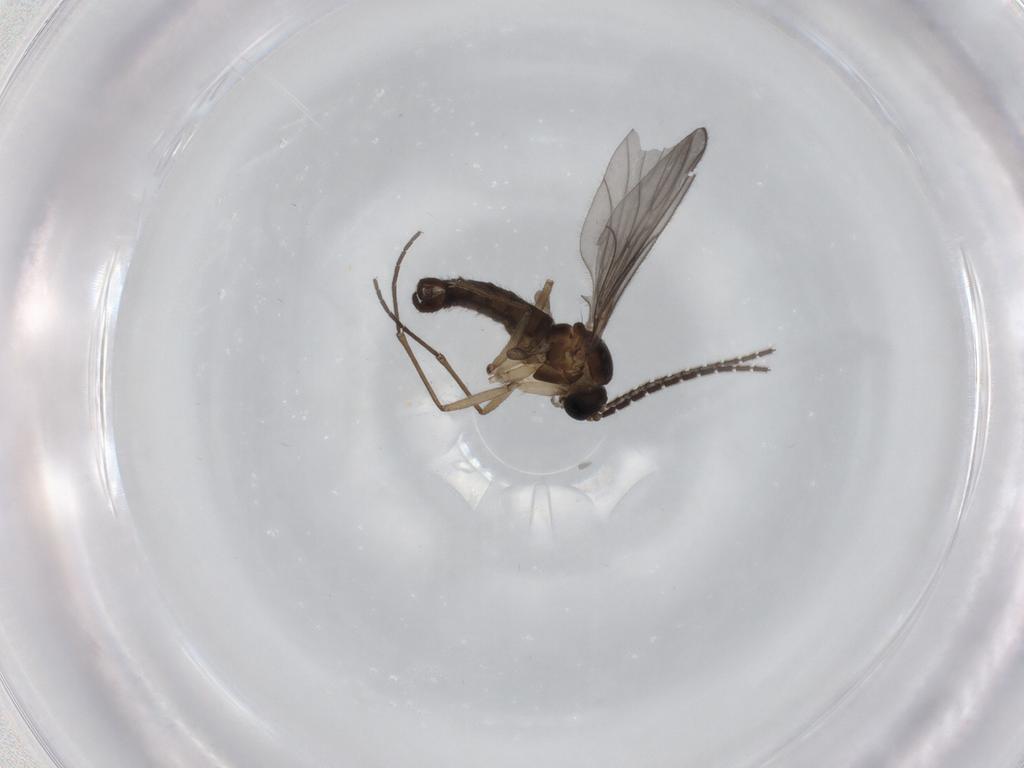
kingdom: Animalia
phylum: Arthropoda
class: Insecta
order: Diptera
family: Sciaridae
